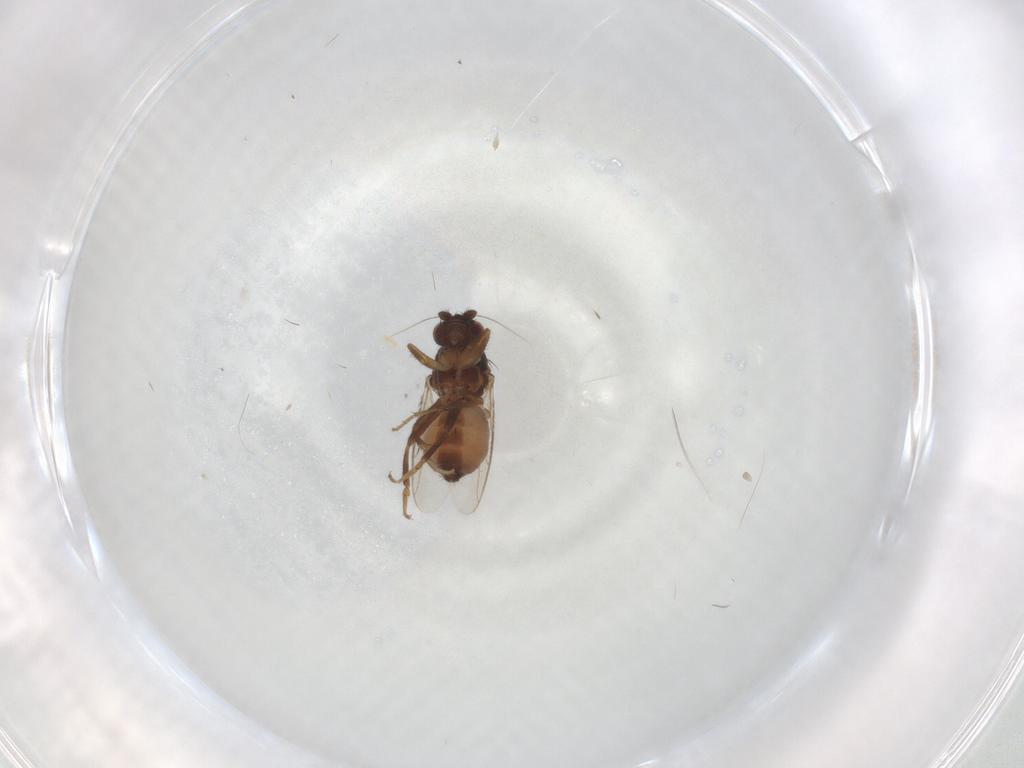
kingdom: Animalia
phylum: Arthropoda
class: Insecta
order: Diptera
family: Sphaeroceridae
